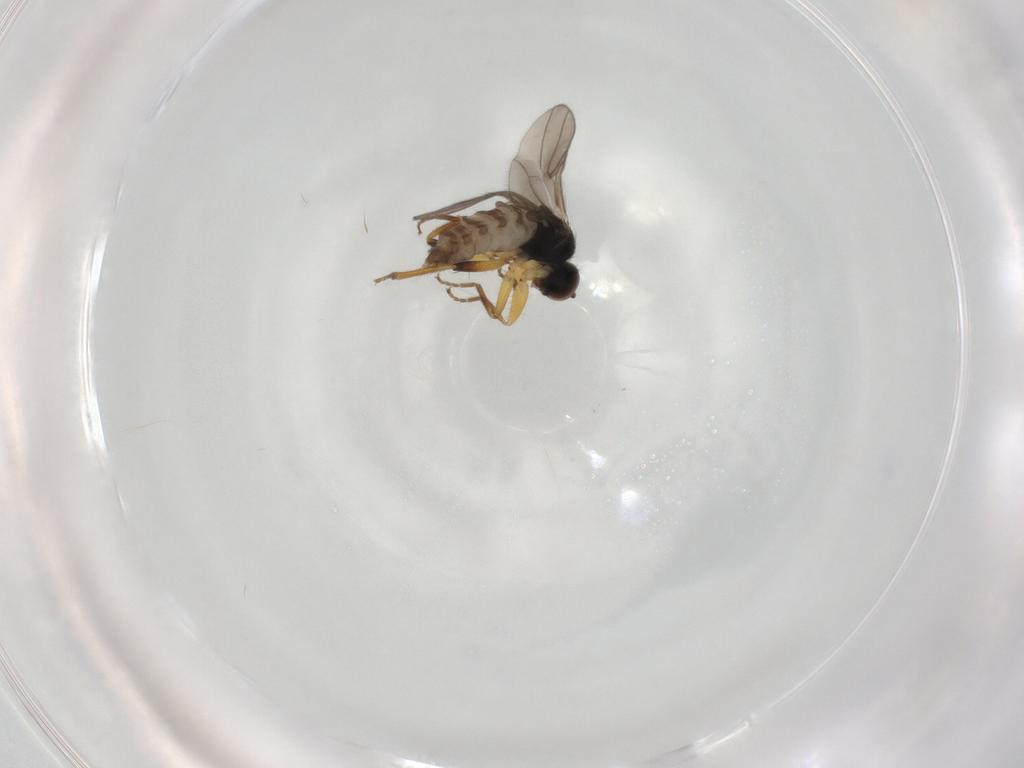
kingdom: Animalia
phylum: Arthropoda
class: Insecta
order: Diptera
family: Hybotidae
